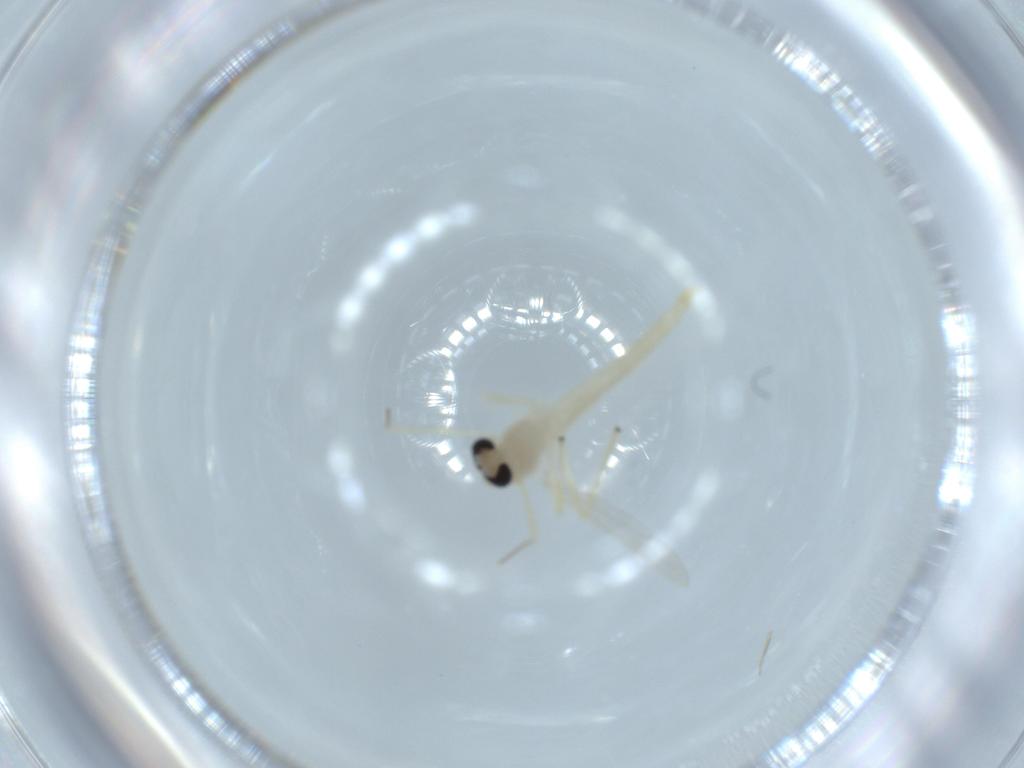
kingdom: Animalia
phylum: Arthropoda
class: Insecta
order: Diptera
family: Chironomidae
